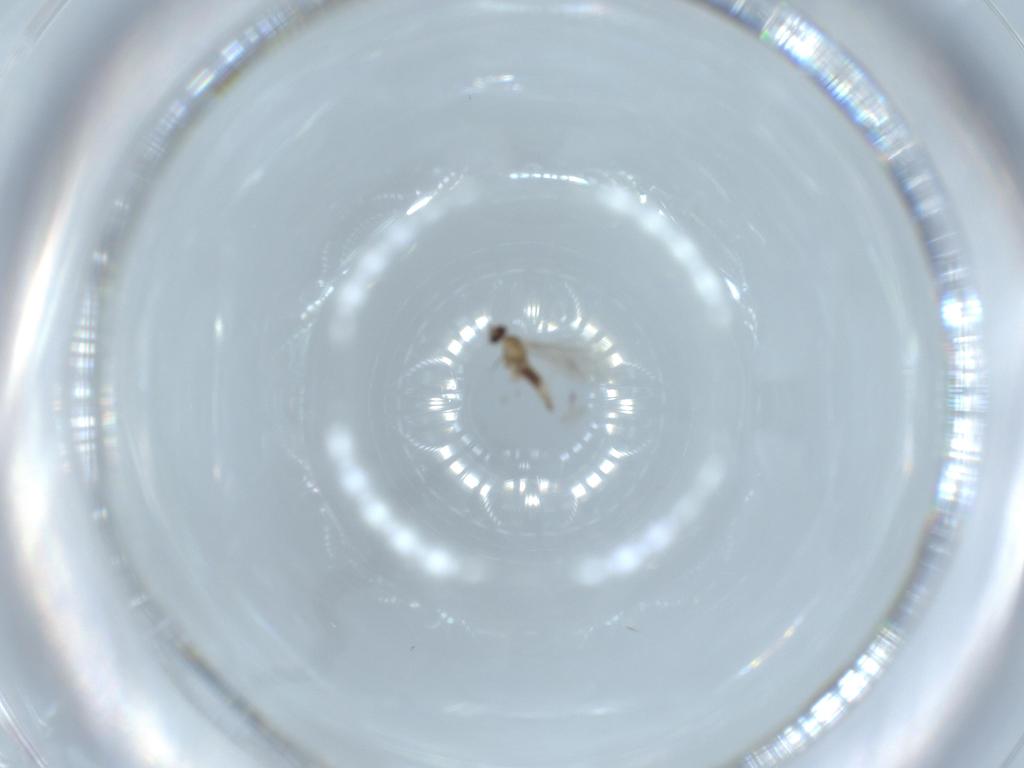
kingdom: Animalia
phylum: Arthropoda
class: Insecta
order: Diptera
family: Cecidomyiidae
